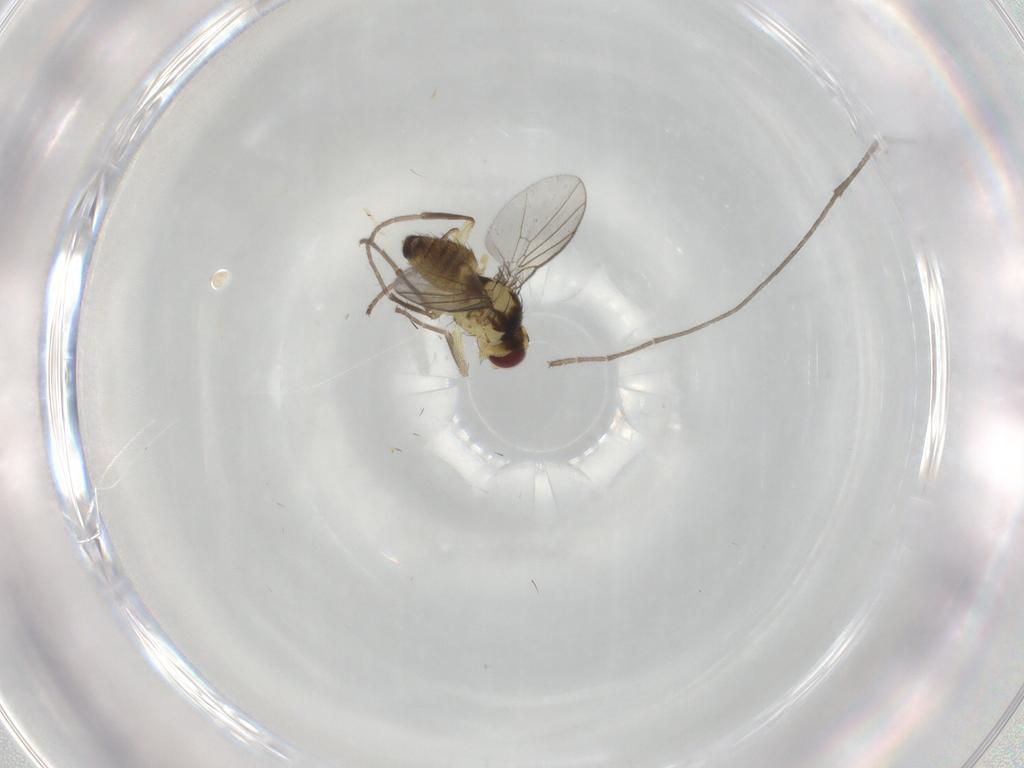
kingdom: Animalia
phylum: Arthropoda
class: Insecta
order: Diptera
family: Agromyzidae
